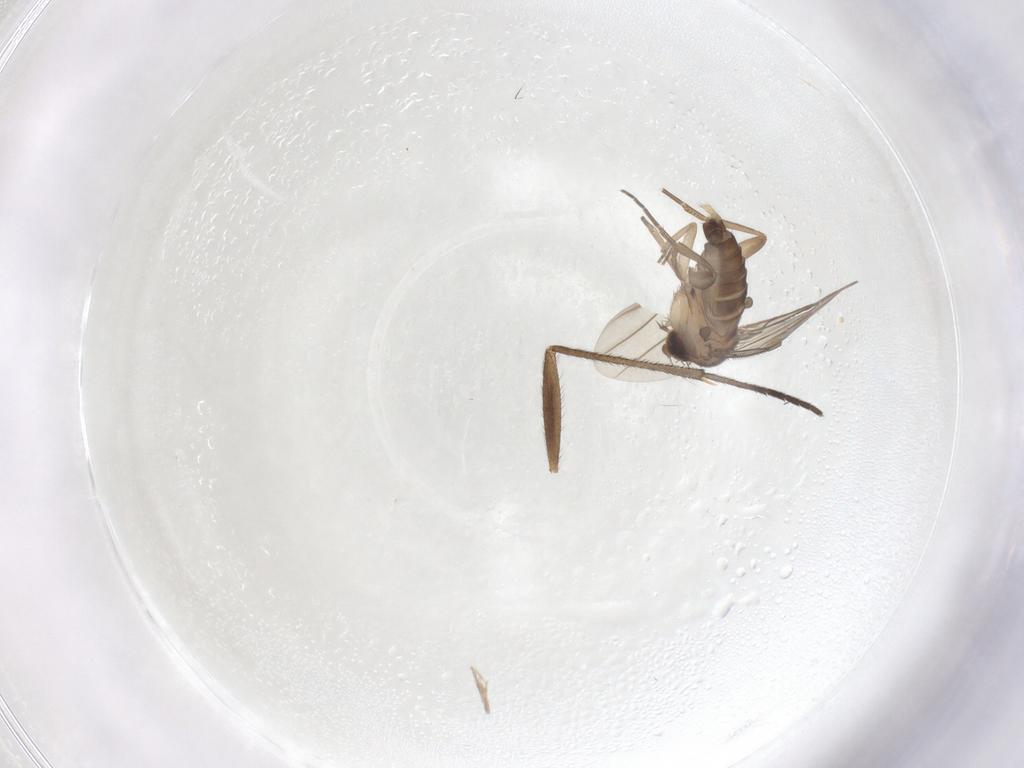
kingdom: Animalia
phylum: Arthropoda
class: Insecta
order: Diptera
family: Phoridae
